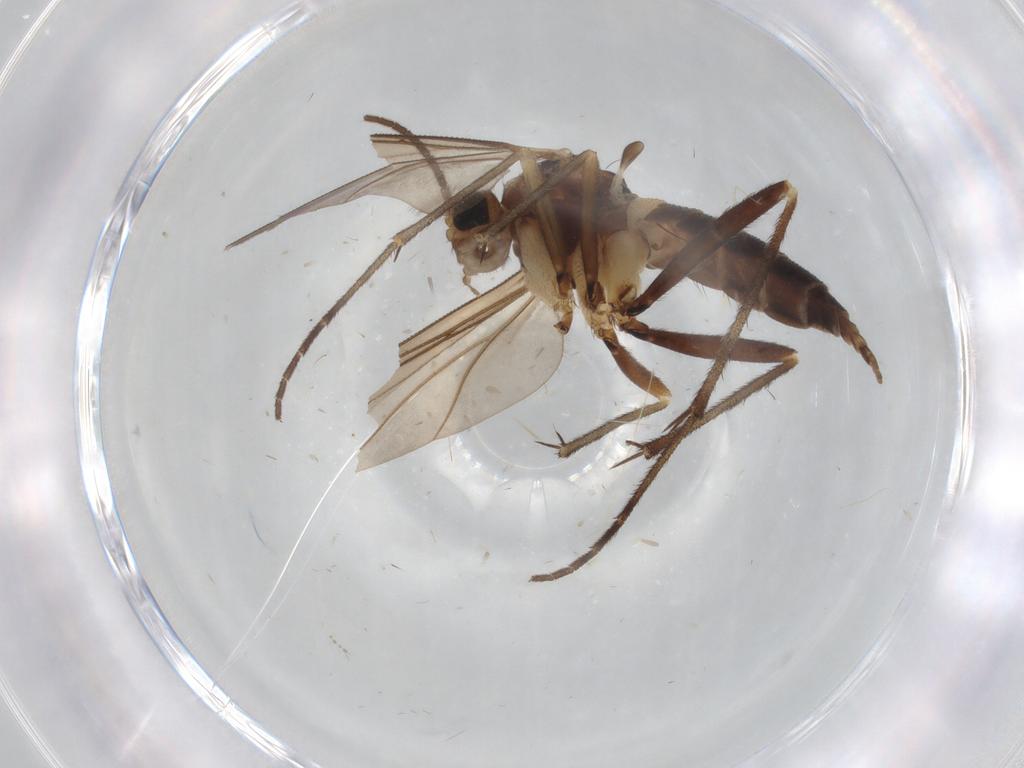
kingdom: Animalia
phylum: Arthropoda
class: Insecta
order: Diptera
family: Sciaridae
